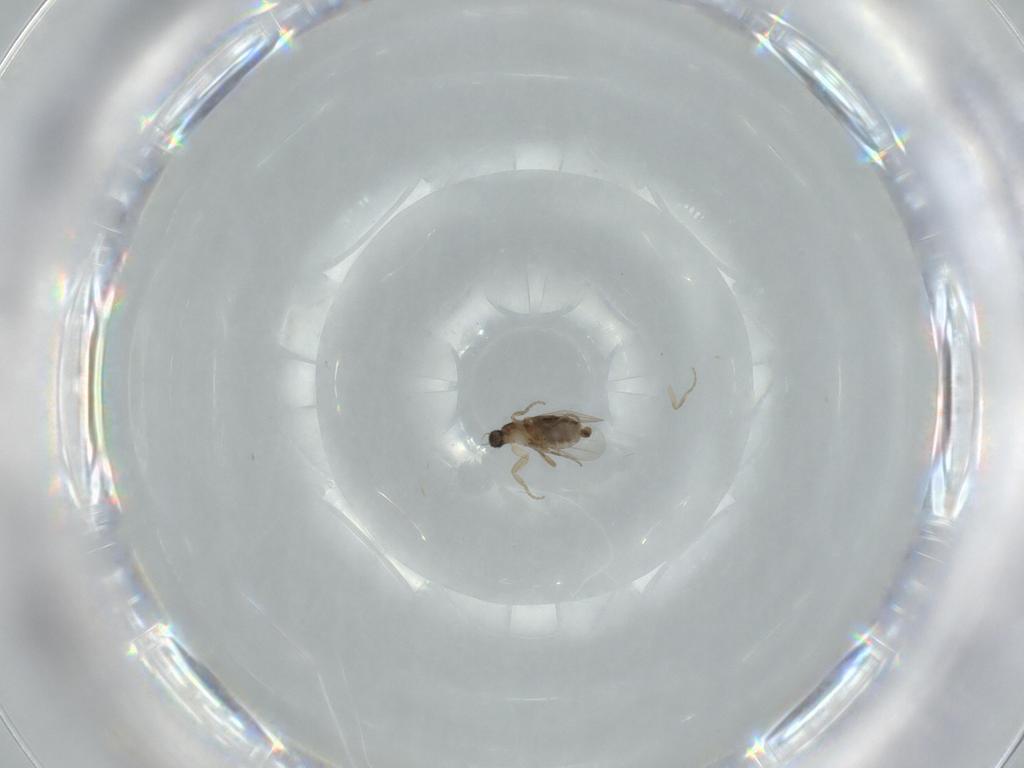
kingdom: Animalia
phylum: Arthropoda
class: Insecta
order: Diptera
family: Phoridae
